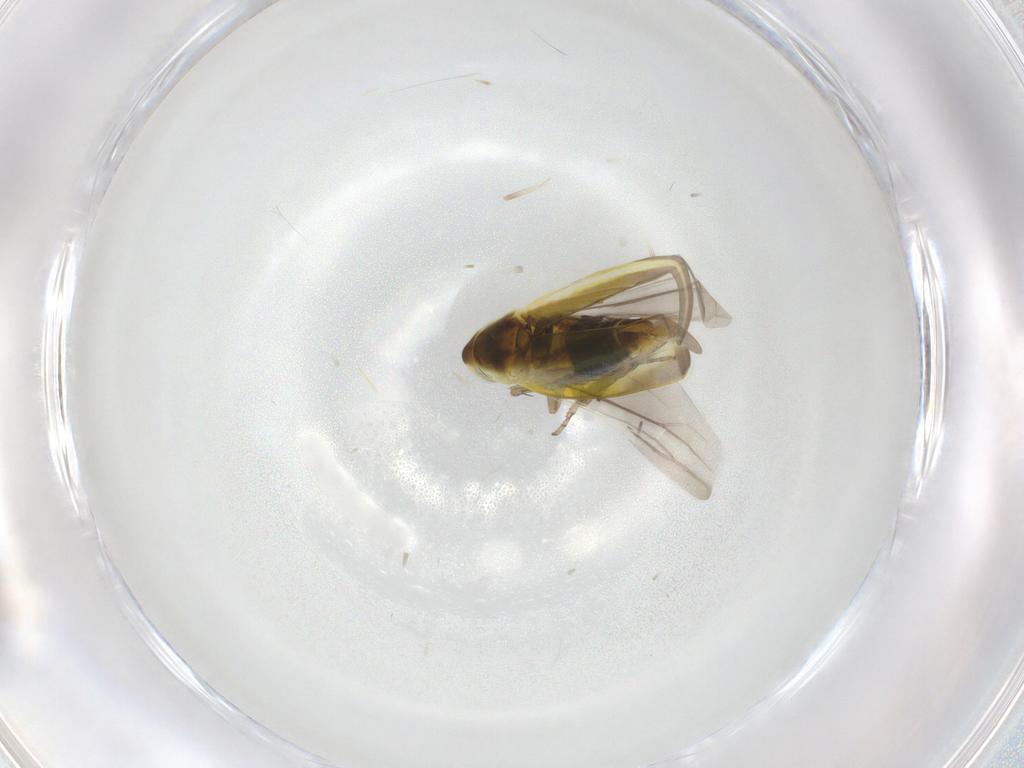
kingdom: Animalia
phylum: Arthropoda
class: Insecta
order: Hemiptera
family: Cicadellidae
